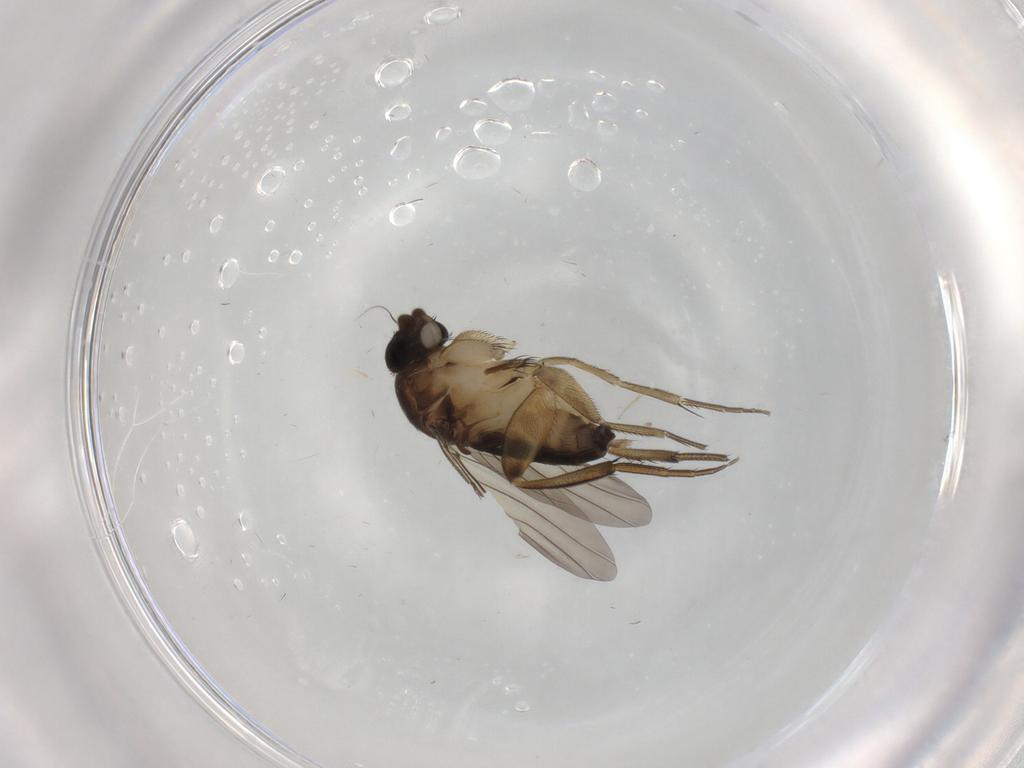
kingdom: Animalia
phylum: Arthropoda
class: Insecta
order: Diptera
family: Phoridae
